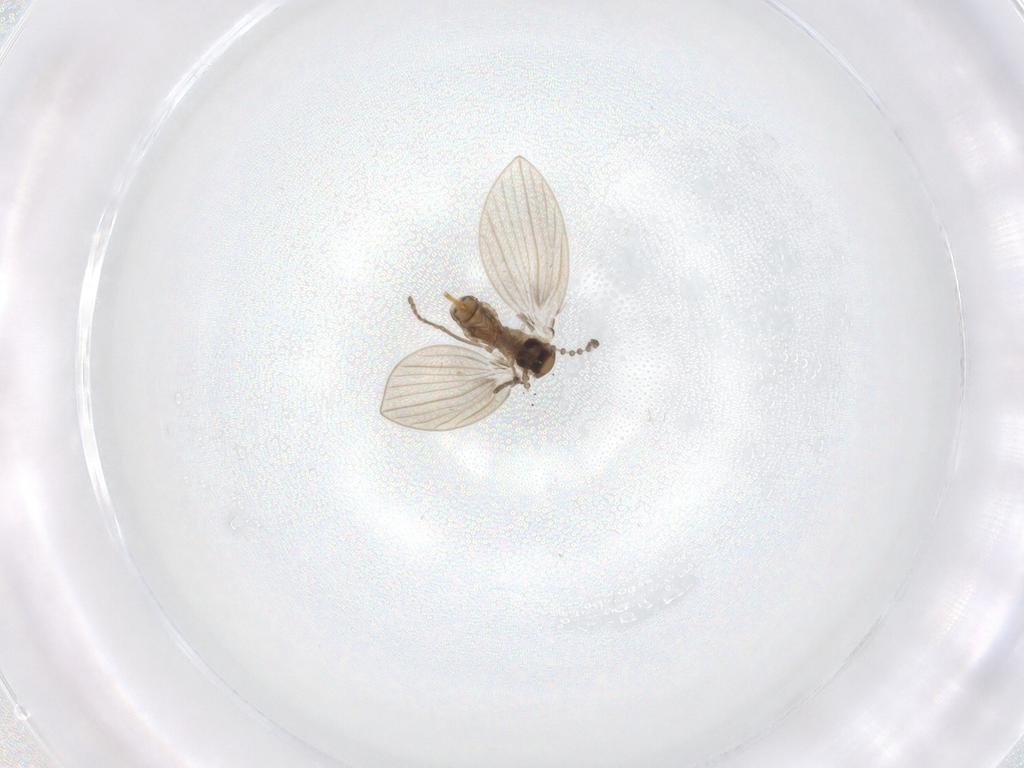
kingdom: Animalia
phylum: Arthropoda
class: Insecta
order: Diptera
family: Psychodidae
